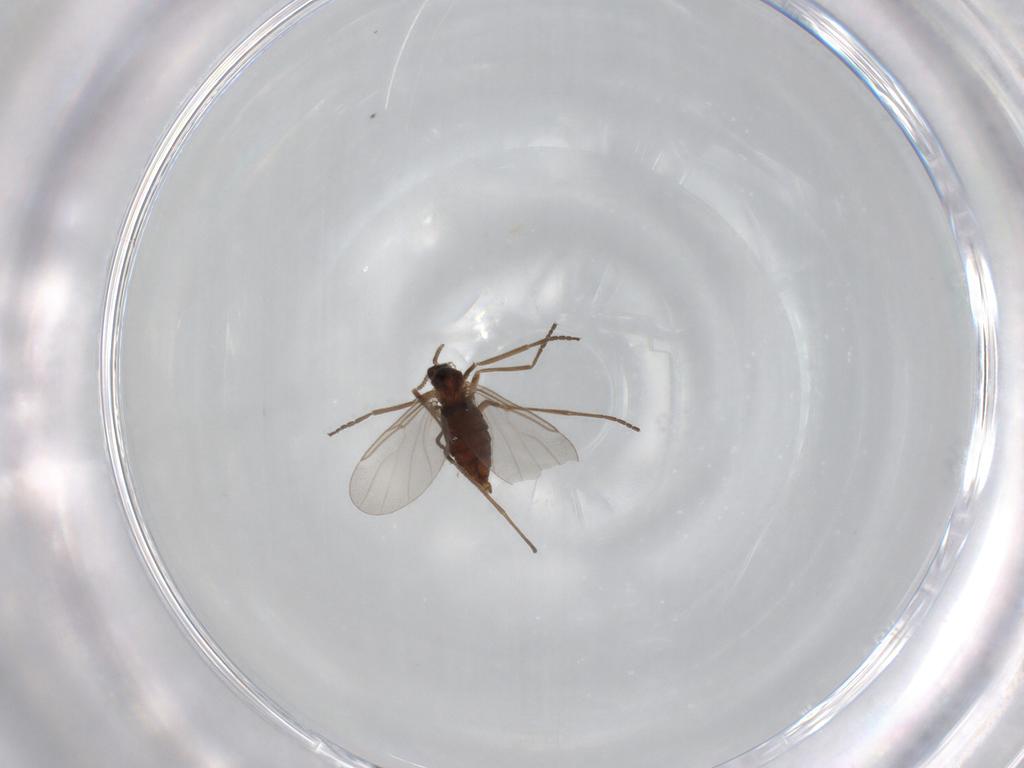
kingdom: Animalia
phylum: Arthropoda
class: Insecta
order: Diptera
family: Cecidomyiidae
